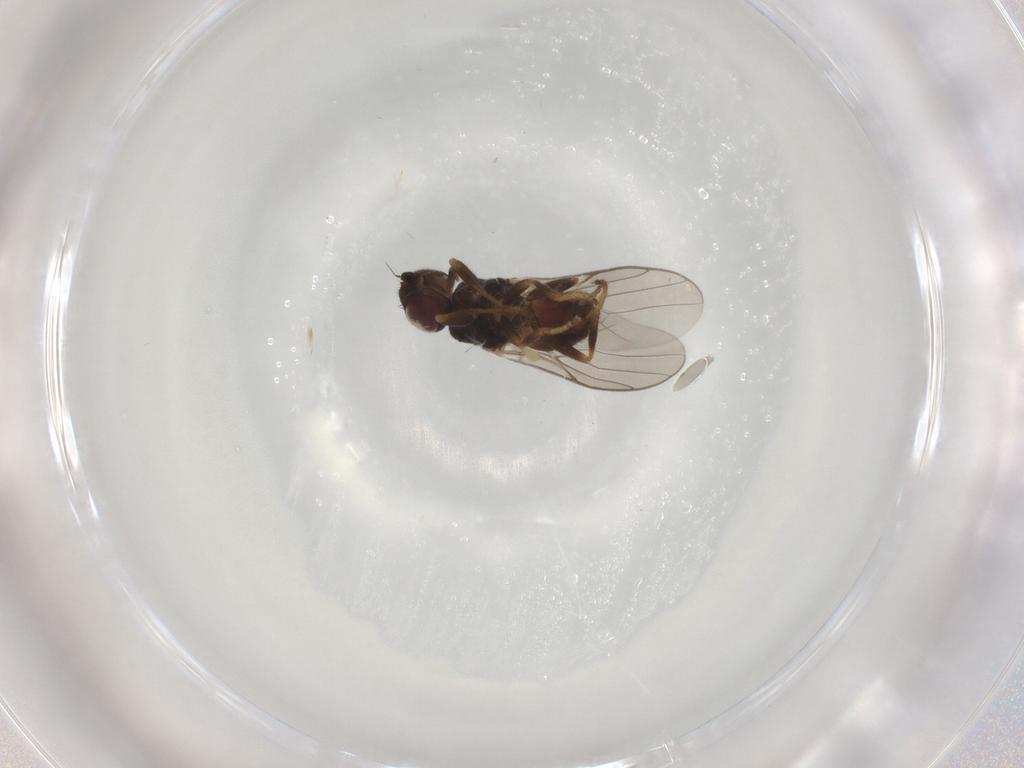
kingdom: Animalia
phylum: Arthropoda
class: Insecta
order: Diptera
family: Chloropidae
